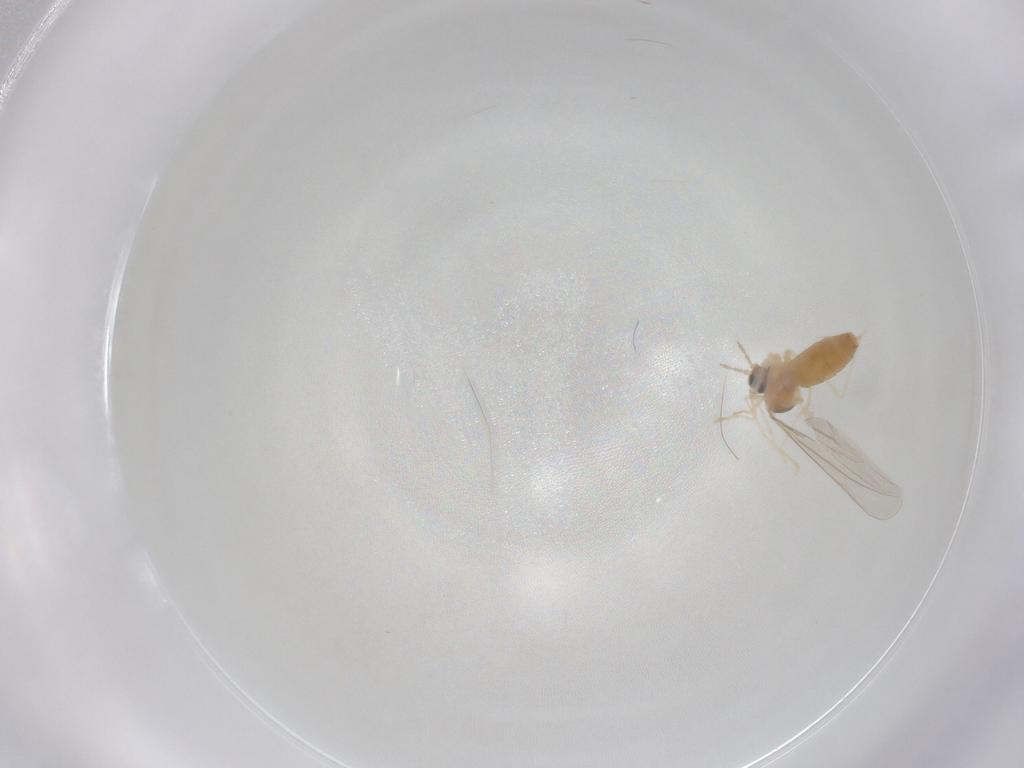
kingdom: Animalia
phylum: Arthropoda
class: Insecta
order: Diptera
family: Cecidomyiidae
